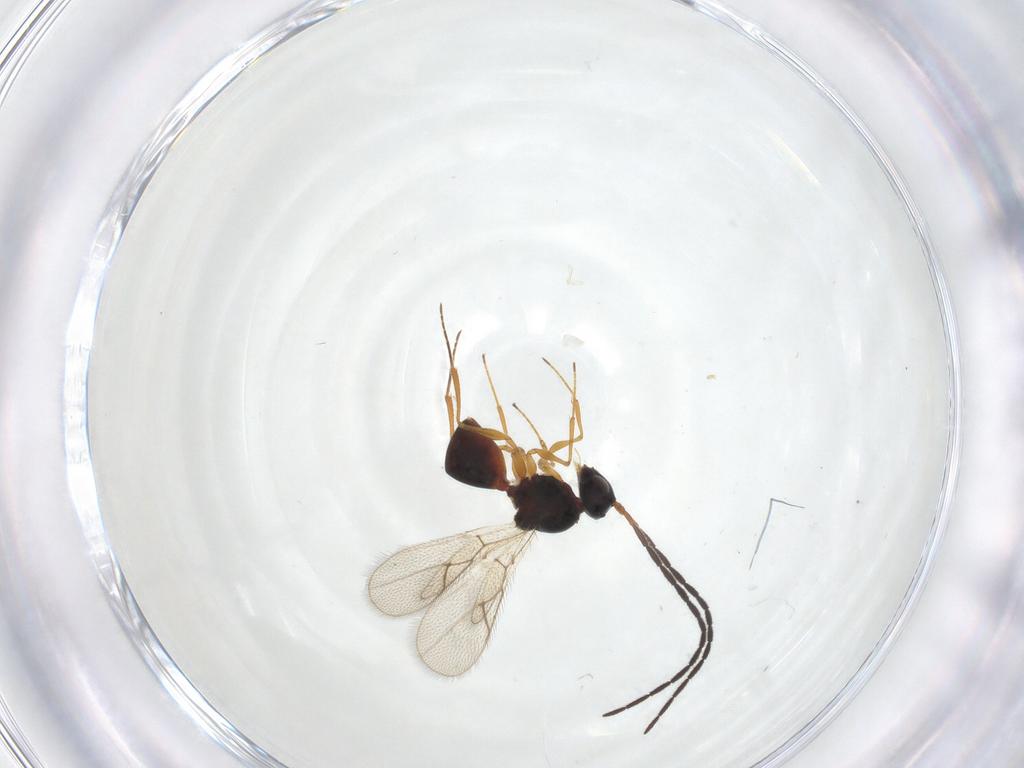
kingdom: Animalia
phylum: Arthropoda
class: Insecta
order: Hymenoptera
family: Figitidae
